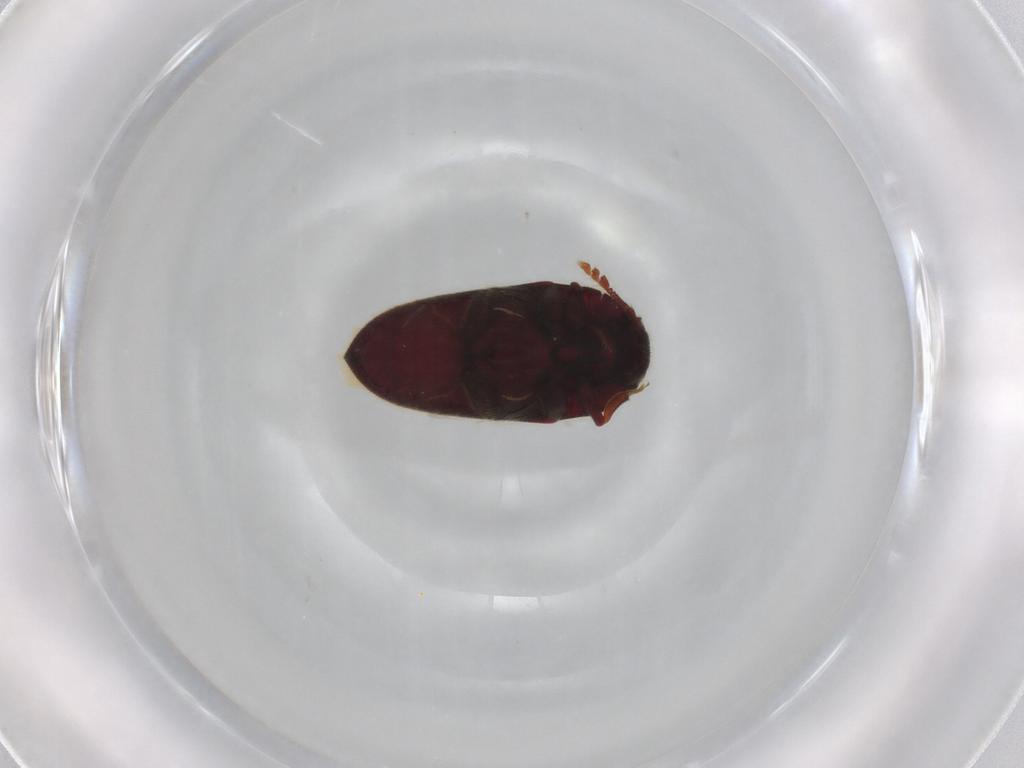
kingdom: Animalia
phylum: Arthropoda
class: Insecta
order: Coleoptera
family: Throscidae
